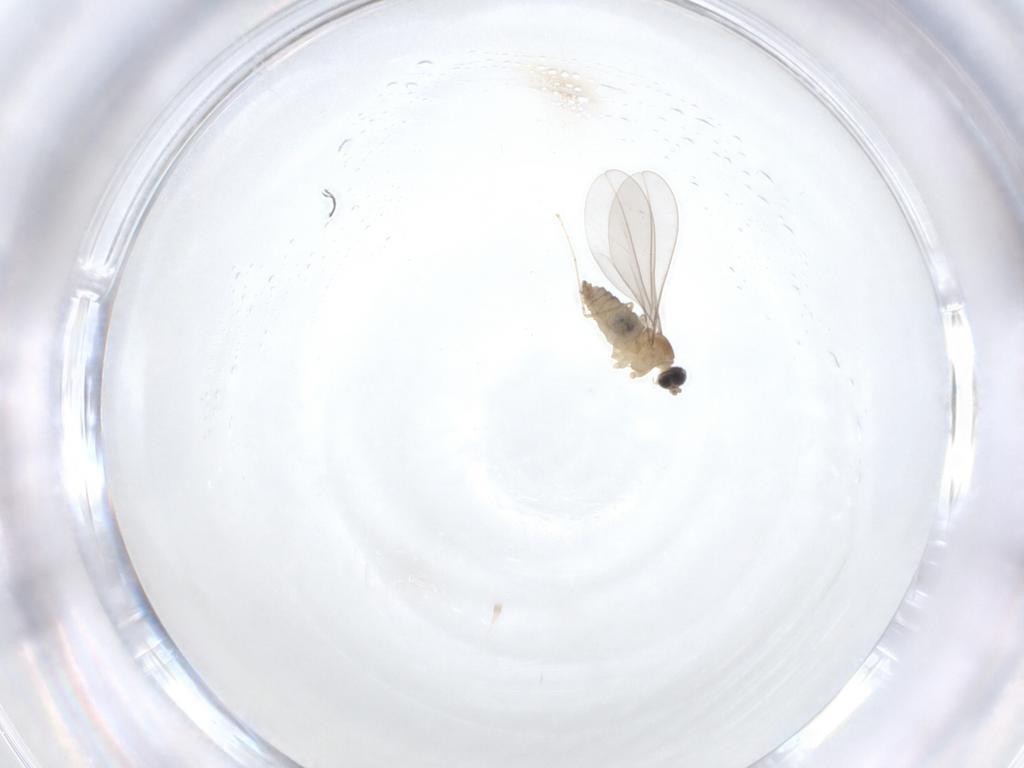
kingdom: Animalia
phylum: Arthropoda
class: Insecta
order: Diptera
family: Cecidomyiidae
